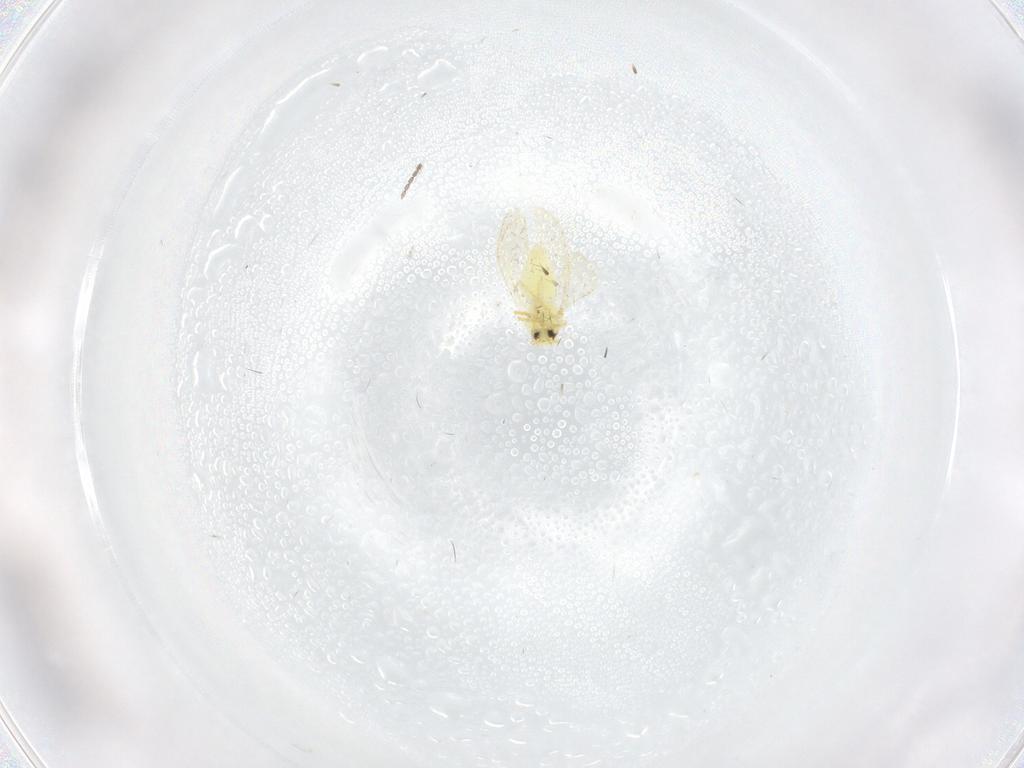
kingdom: Animalia
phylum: Arthropoda
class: Insecta
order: Hemiptera
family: Aleyrodidae
